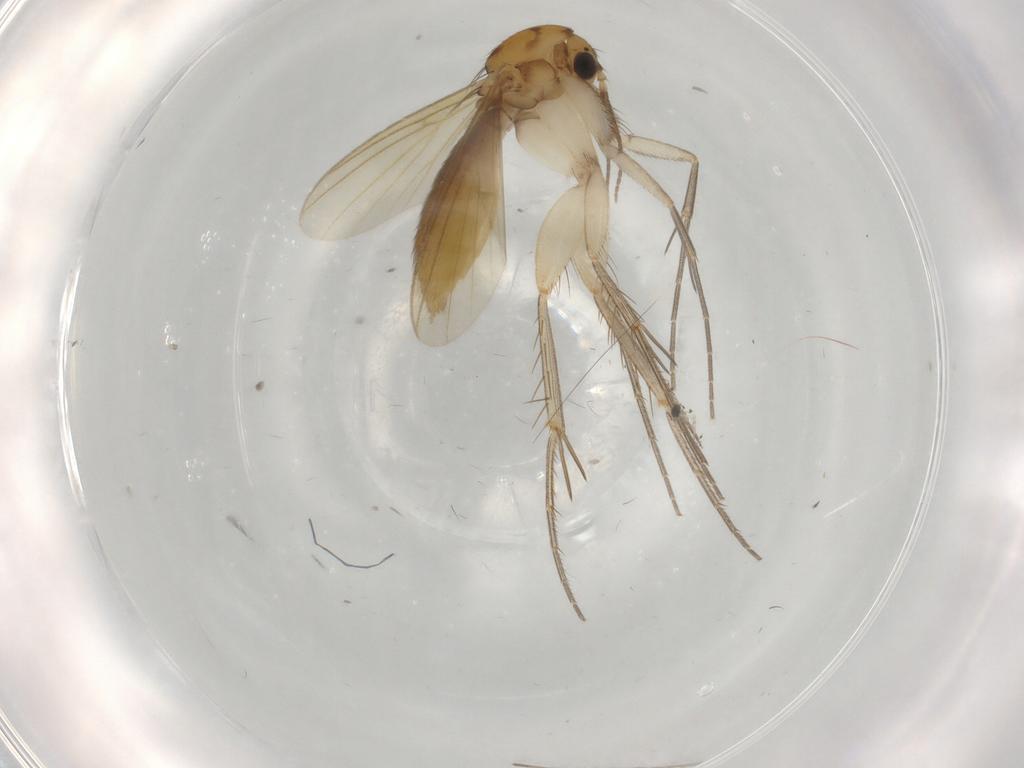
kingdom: Animalia
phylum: Arthropoda
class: Insecta
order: Diptera
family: Mycetophilidae
